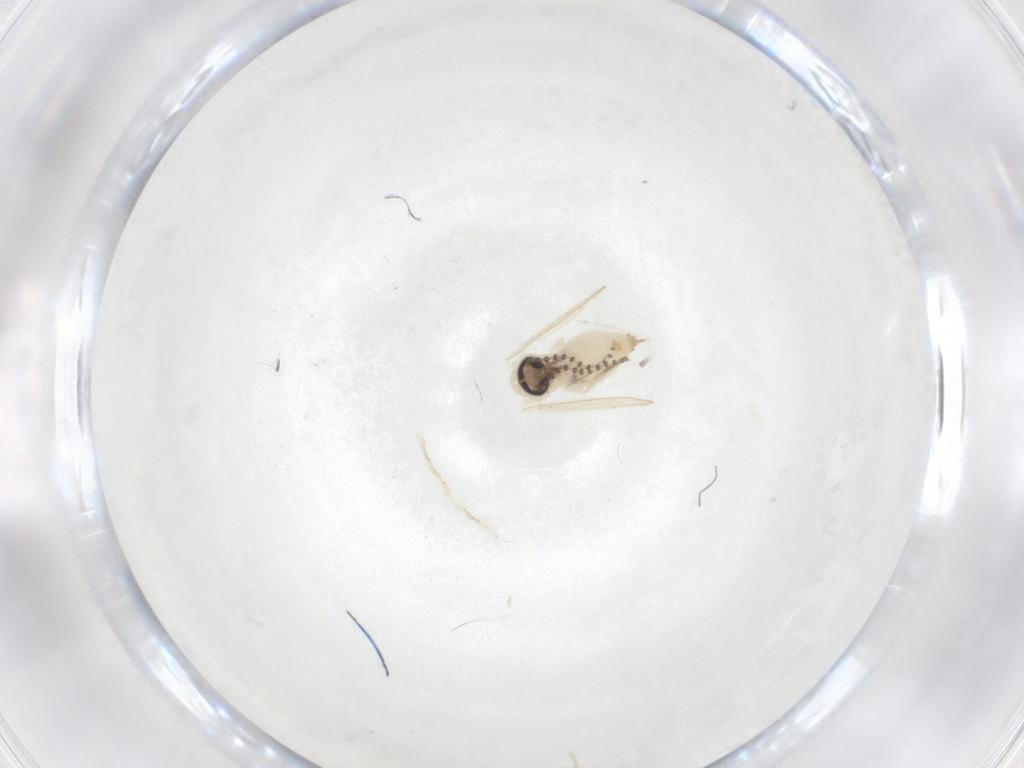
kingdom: Animalia
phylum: Arthropoda
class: Insecta
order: Diptera
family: Psychodidae
